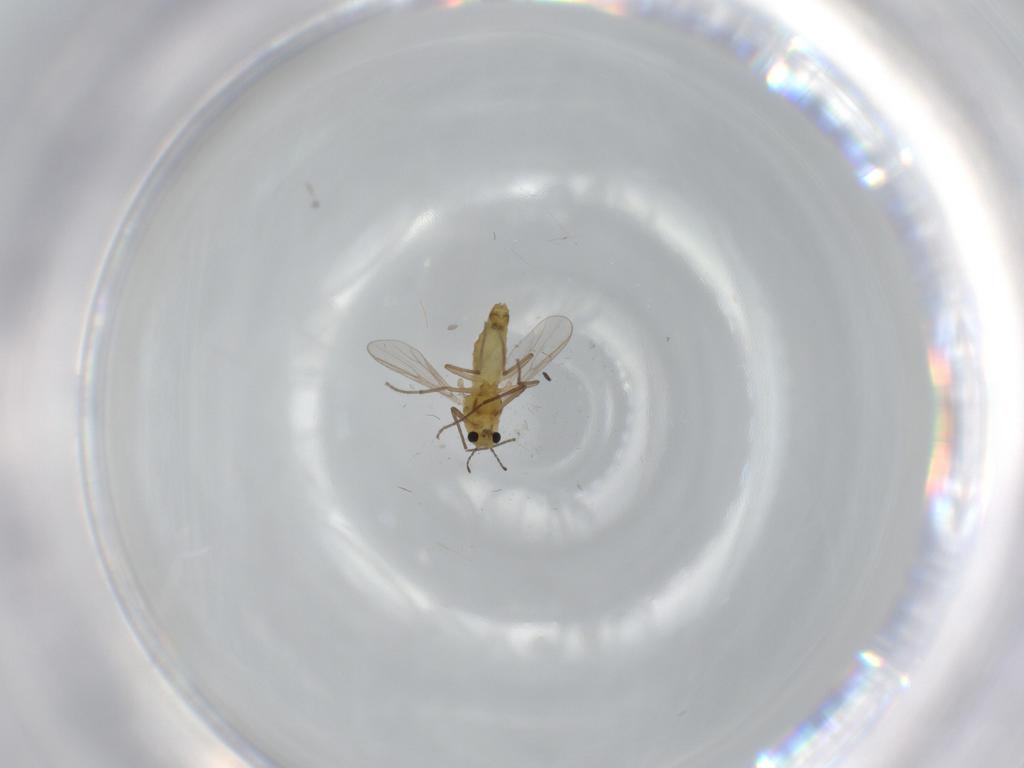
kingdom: Animalia
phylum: Arthropoda
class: Insecta
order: Diptera
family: Chironomidae
